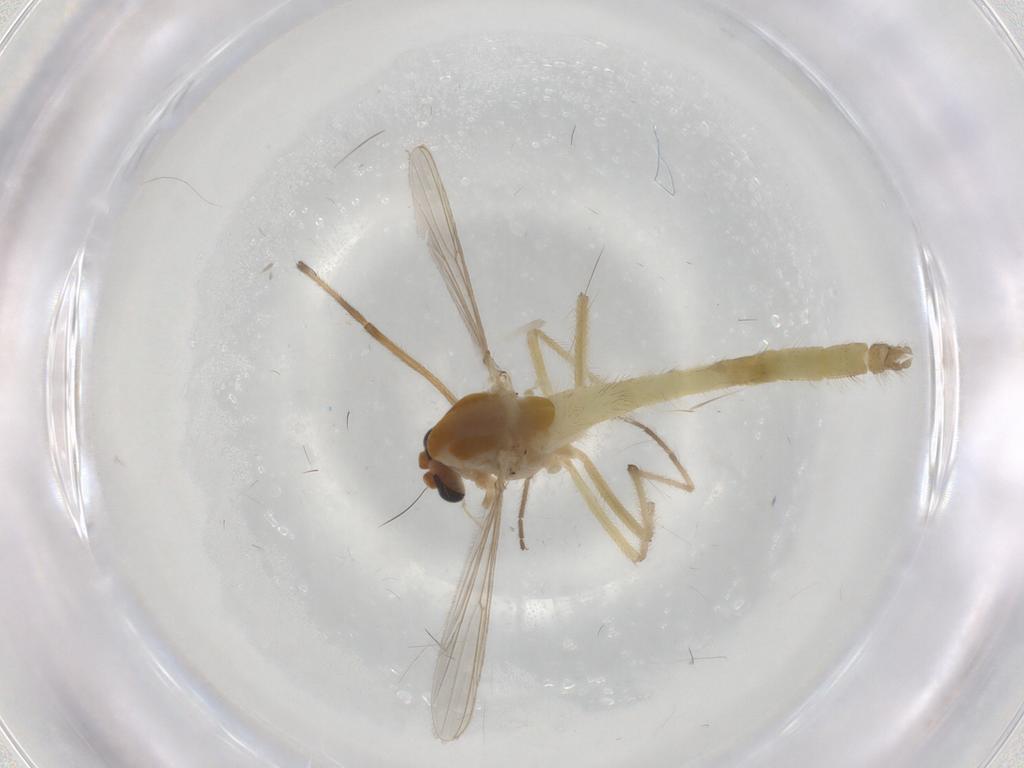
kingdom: Animalia
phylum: Arthropoda
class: Insecta
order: Diptera
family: Chironomidae
